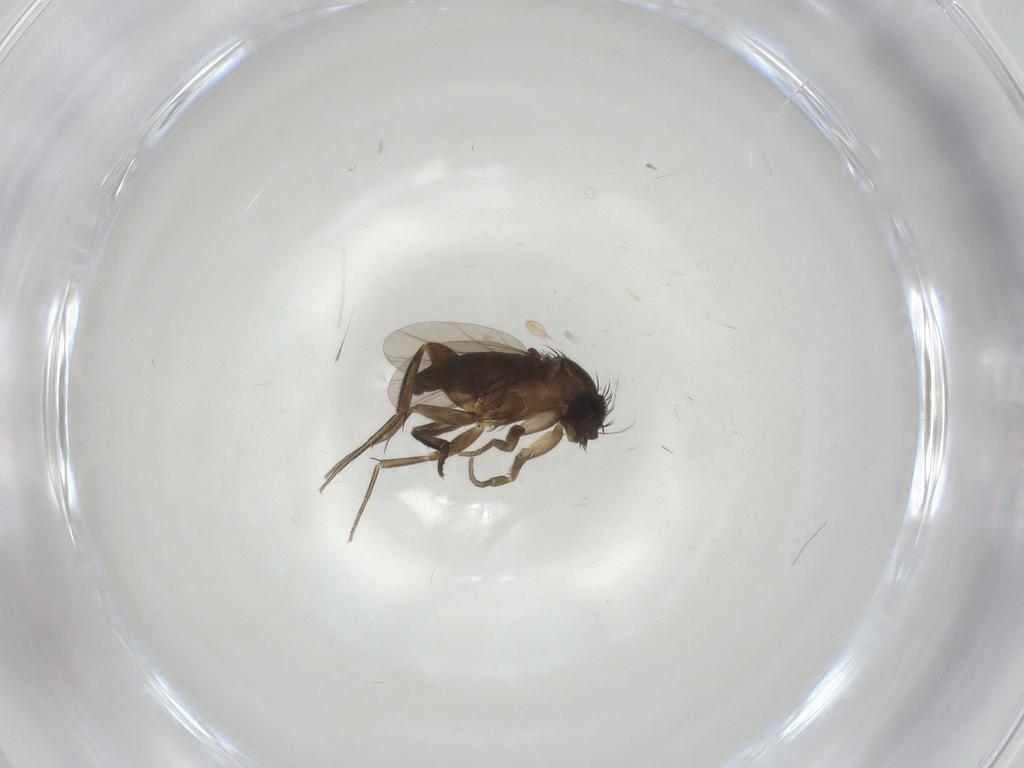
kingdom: Animalia
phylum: Arthropoda
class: Insecta
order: Diptera
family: Phoridae
